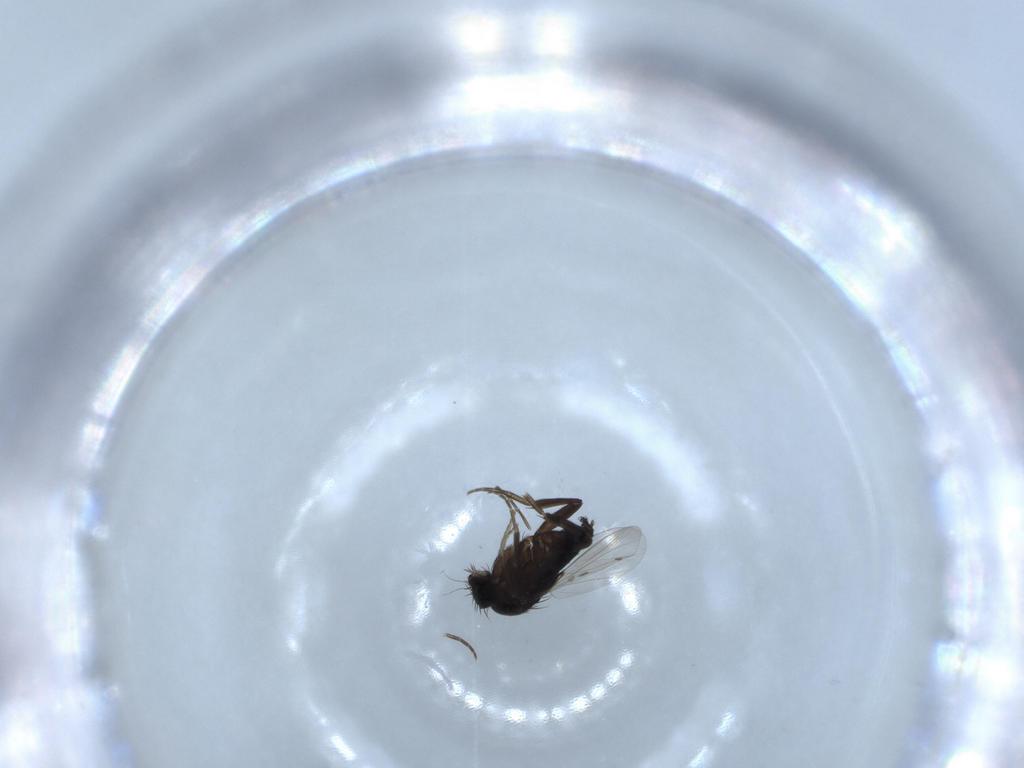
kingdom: Animalia
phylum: Arthropoda
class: Insecta
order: Diptera
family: Phoridae
